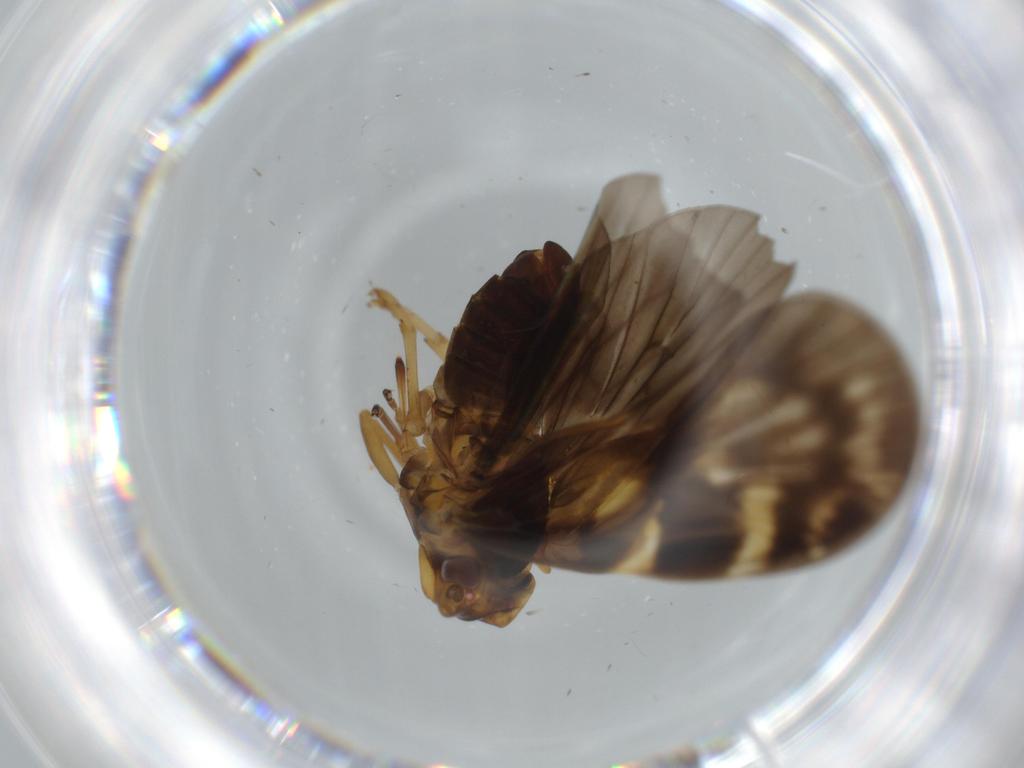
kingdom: Animalia
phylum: Arthropoda
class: Insecta
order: Hemiptera
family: Cixiidae
